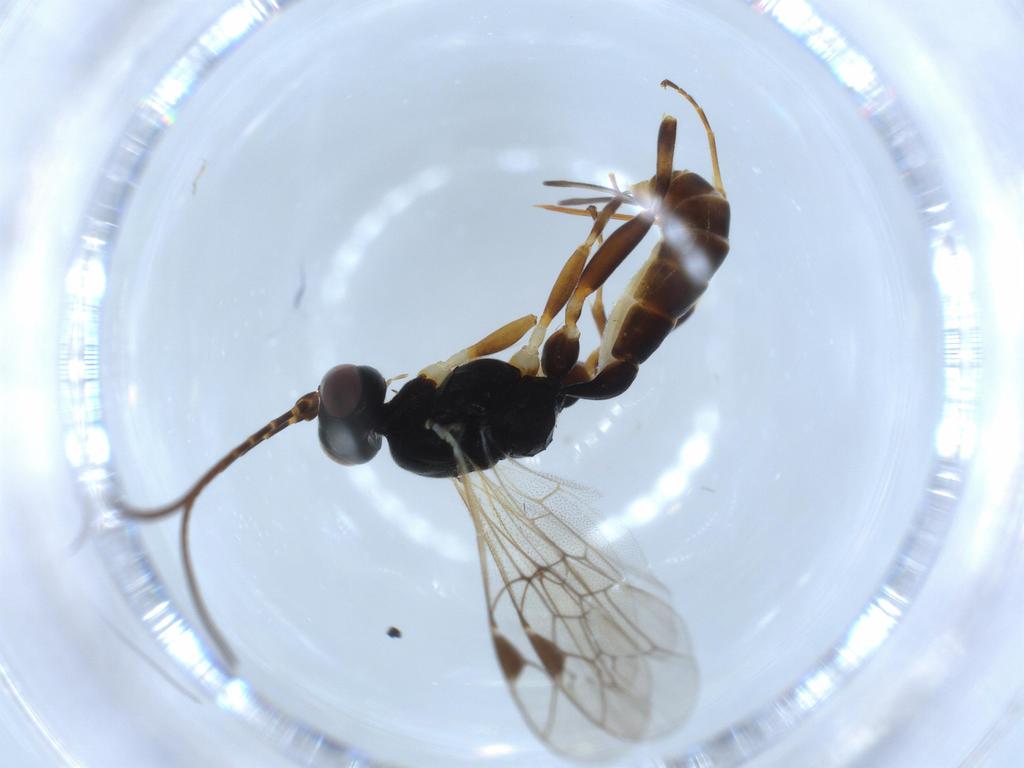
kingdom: Animalia
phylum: Arthropoda
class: Insecta
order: Hymenoptera
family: Ichneumonidae
